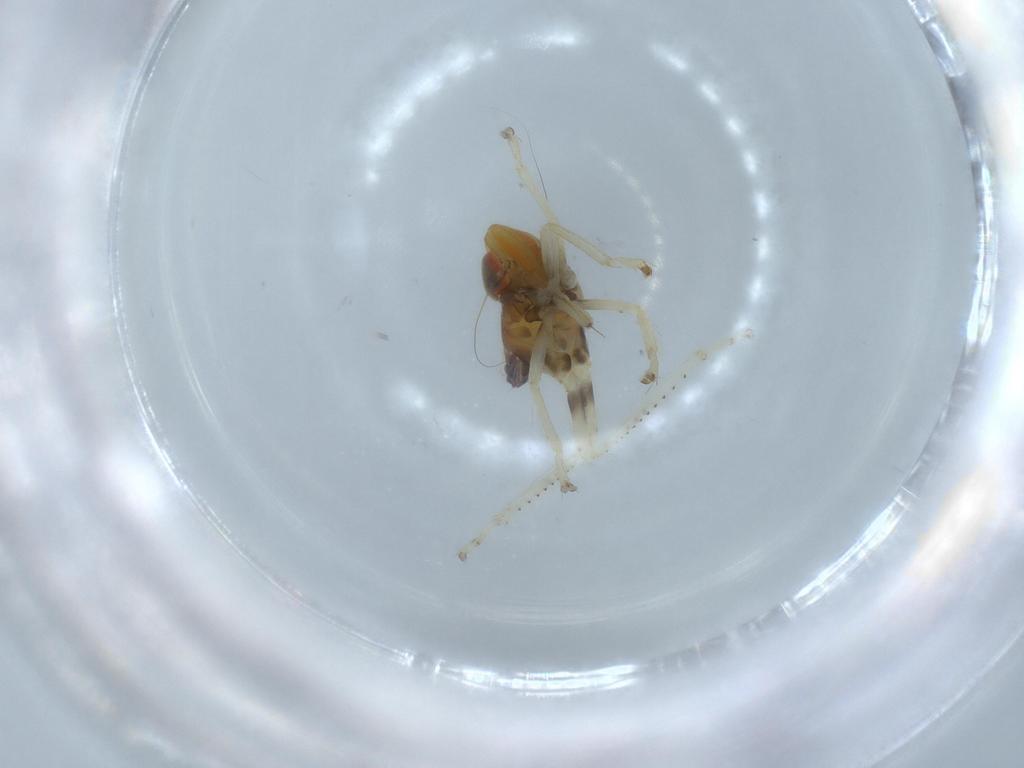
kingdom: Animalia
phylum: Arthropoda
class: Insecta
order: Hemiptera
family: Cicadellidae
